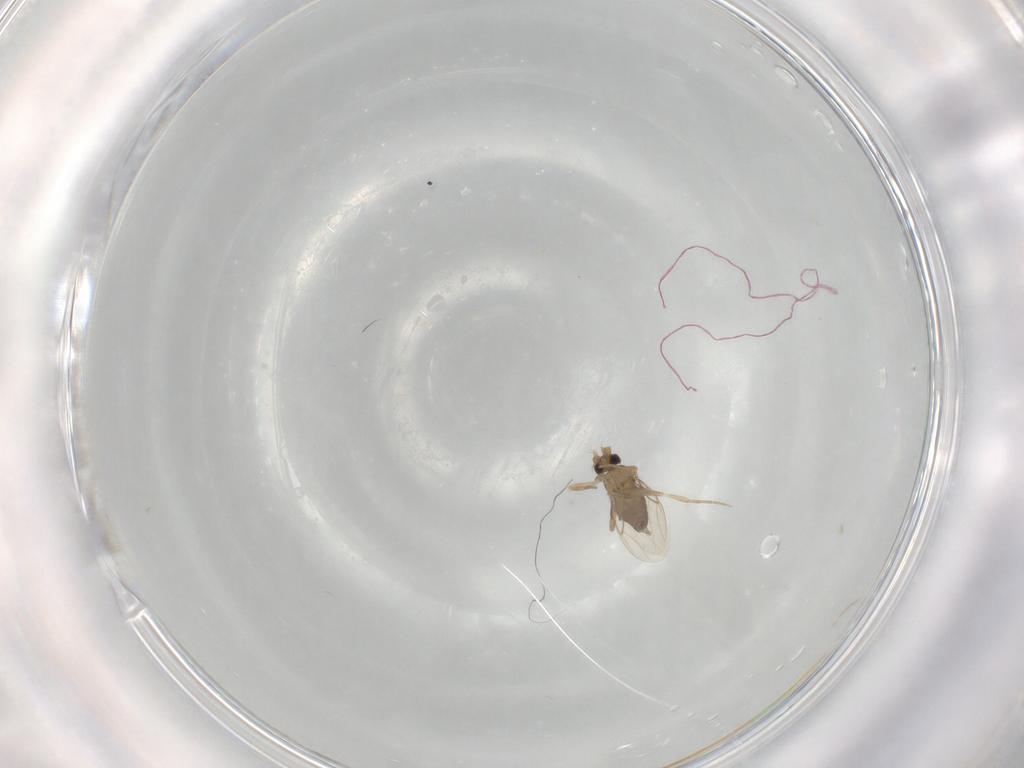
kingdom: Animalia
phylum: Arthropoda
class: Insecta
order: Diptera
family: Phoridae
